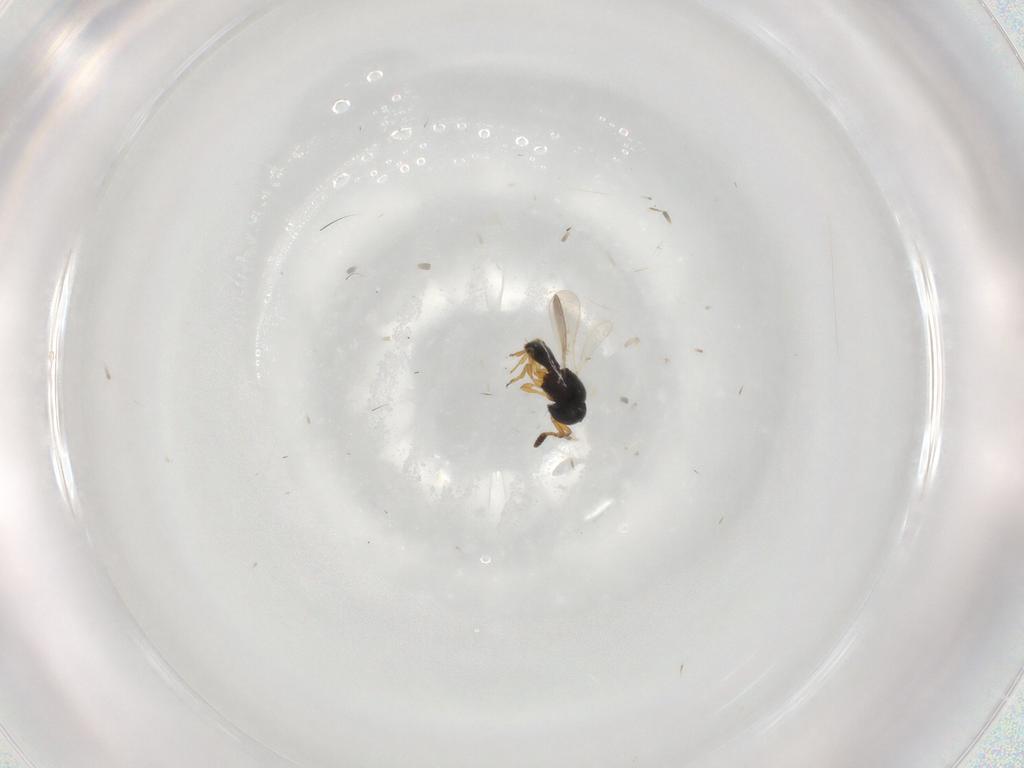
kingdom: Animalia
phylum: Arthropoda
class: Insecta
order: Hymenoptera
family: Scelionidae
